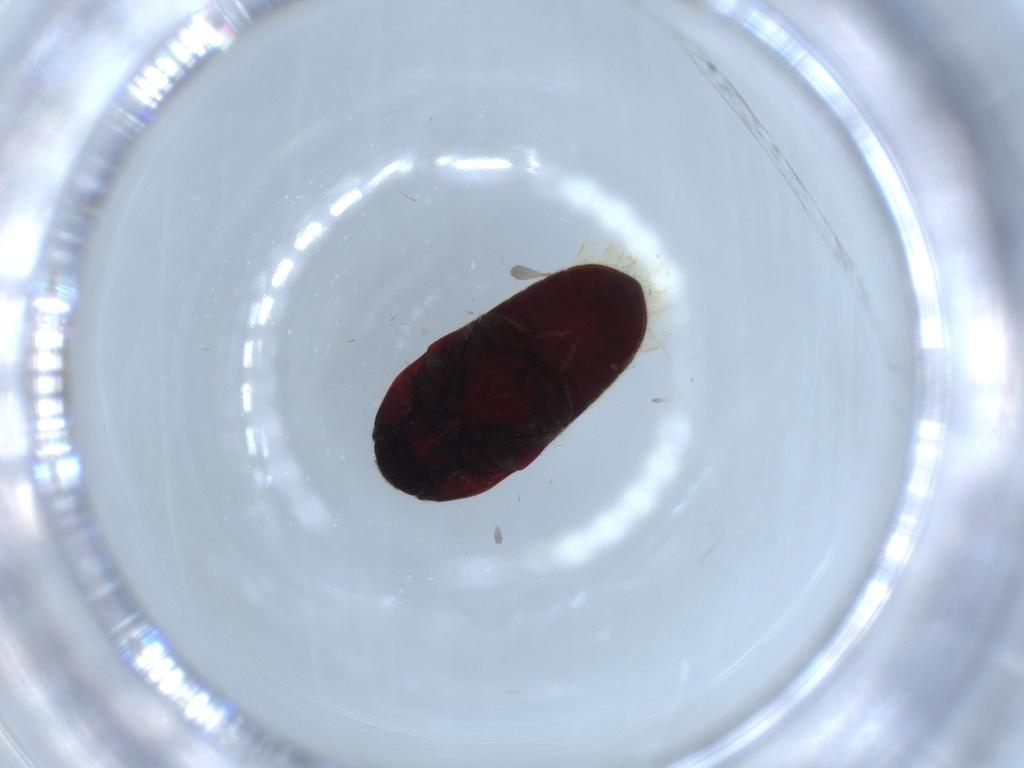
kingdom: Animalia
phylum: Arthropoda
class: Insecta
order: Coleoptera
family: Throscidae
